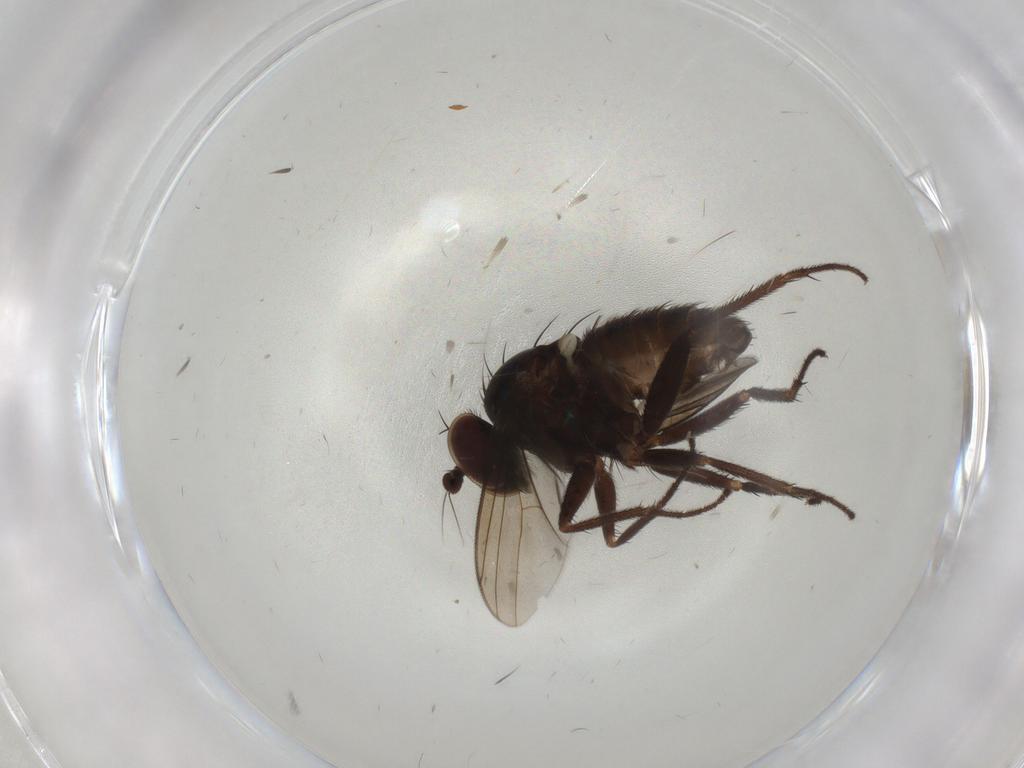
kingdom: Animalia
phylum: Arthropoda
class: Insecta
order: Diptera
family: Dolichopodidae
